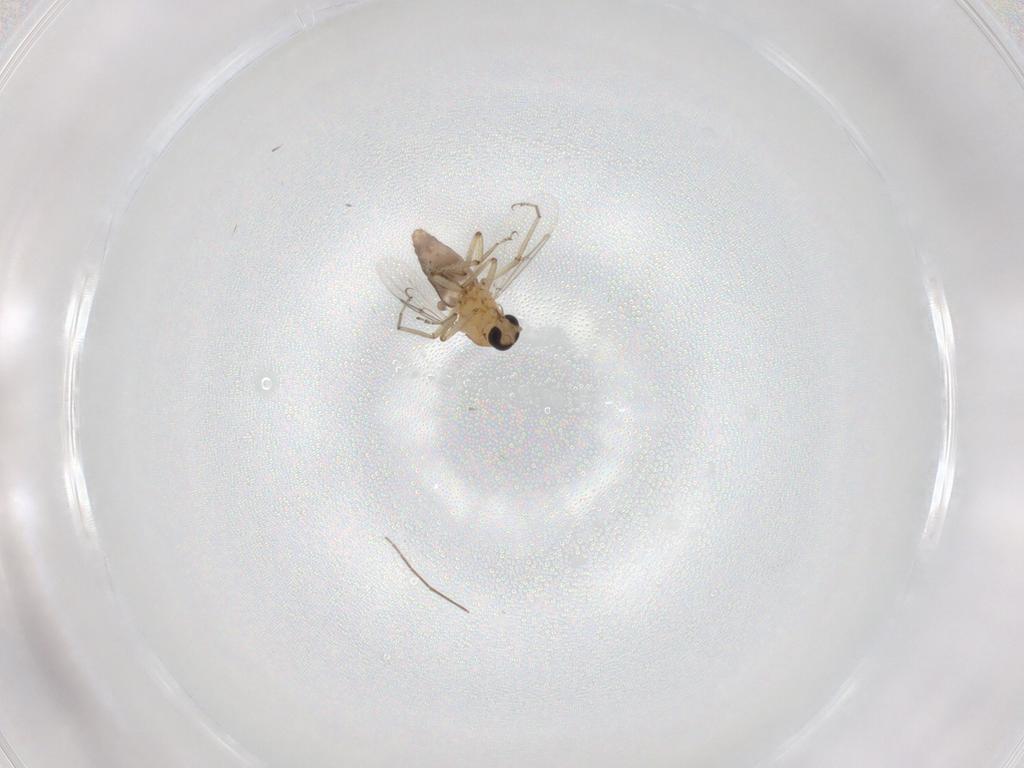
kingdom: Animalia
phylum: Arthropoda
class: Insecta
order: Diptera
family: Ceratopogonidae
